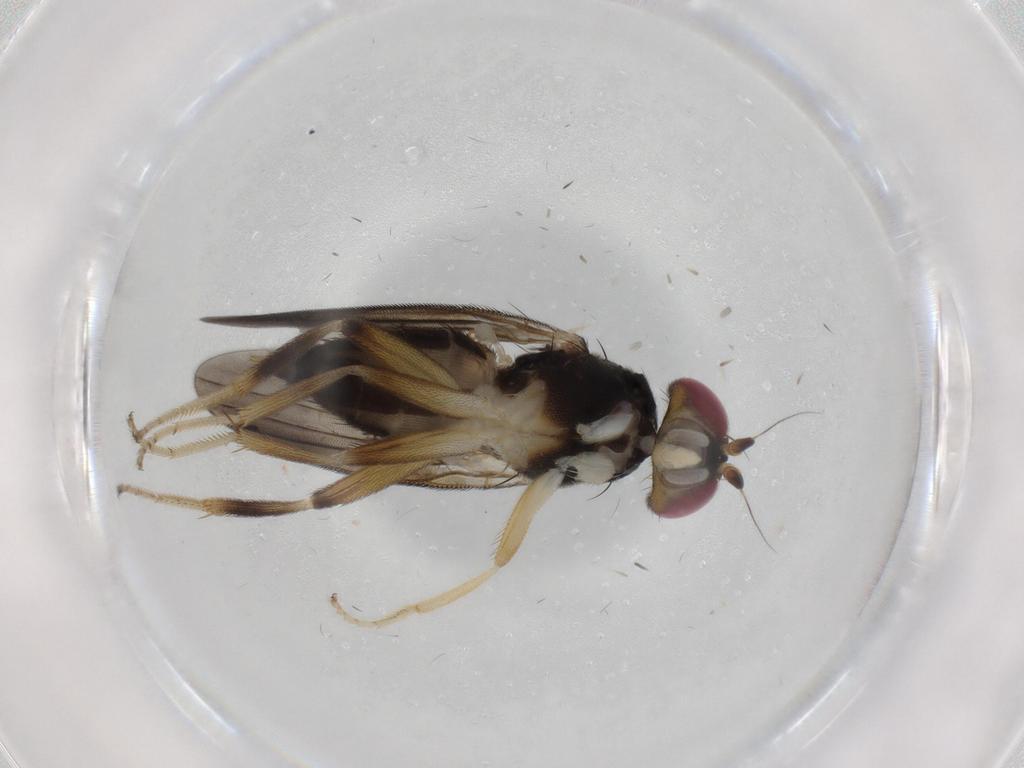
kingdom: Animalia
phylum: Arthropoda
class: Insecta
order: Diptera
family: Clusiidae
